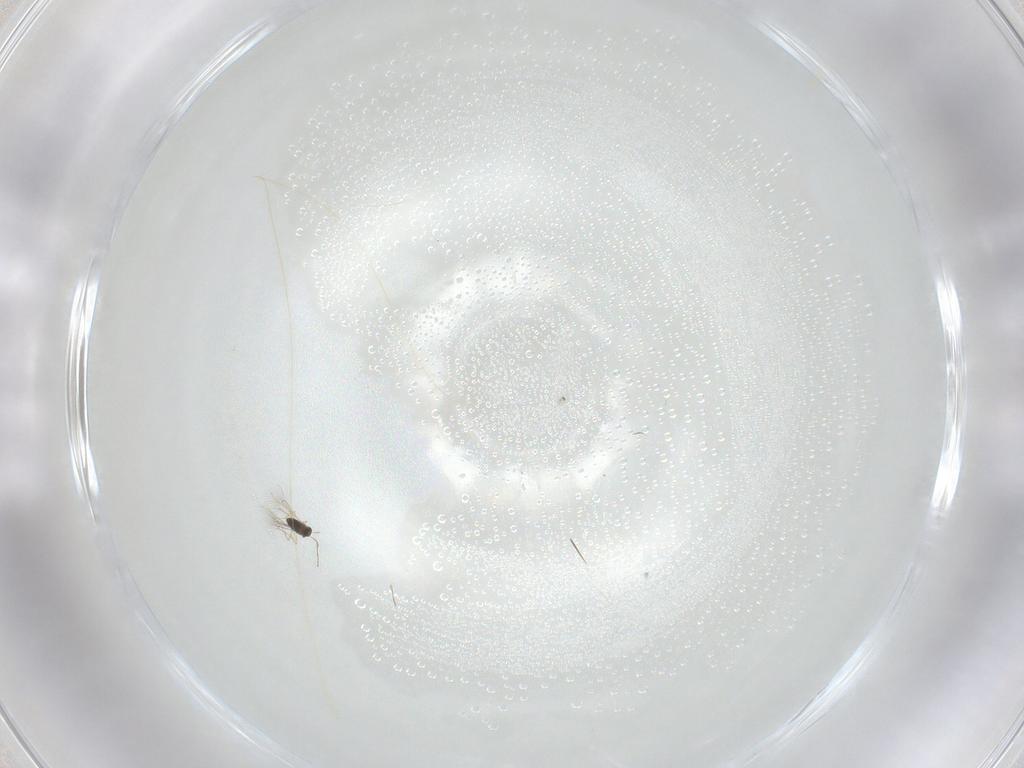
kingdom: Animalia
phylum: Arthropoda
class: Insecta
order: Hymenoptera
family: Mymaridae
